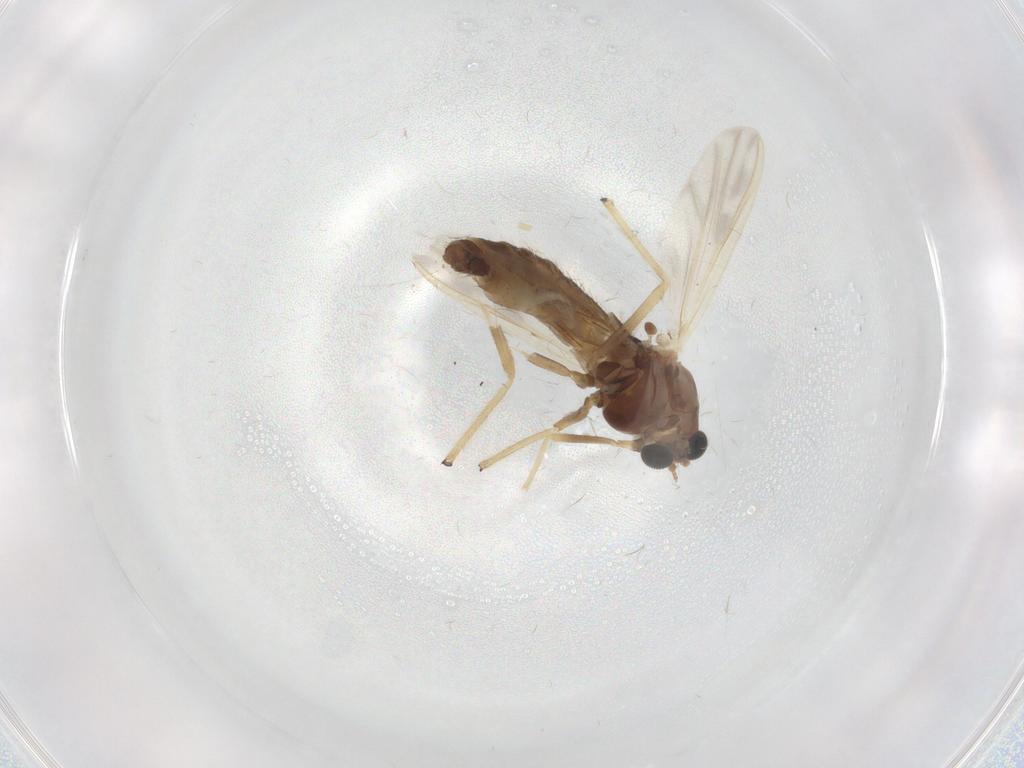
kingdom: Animalia
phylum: Arthropoda
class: Insecta
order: Diptera
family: Chironomidae
